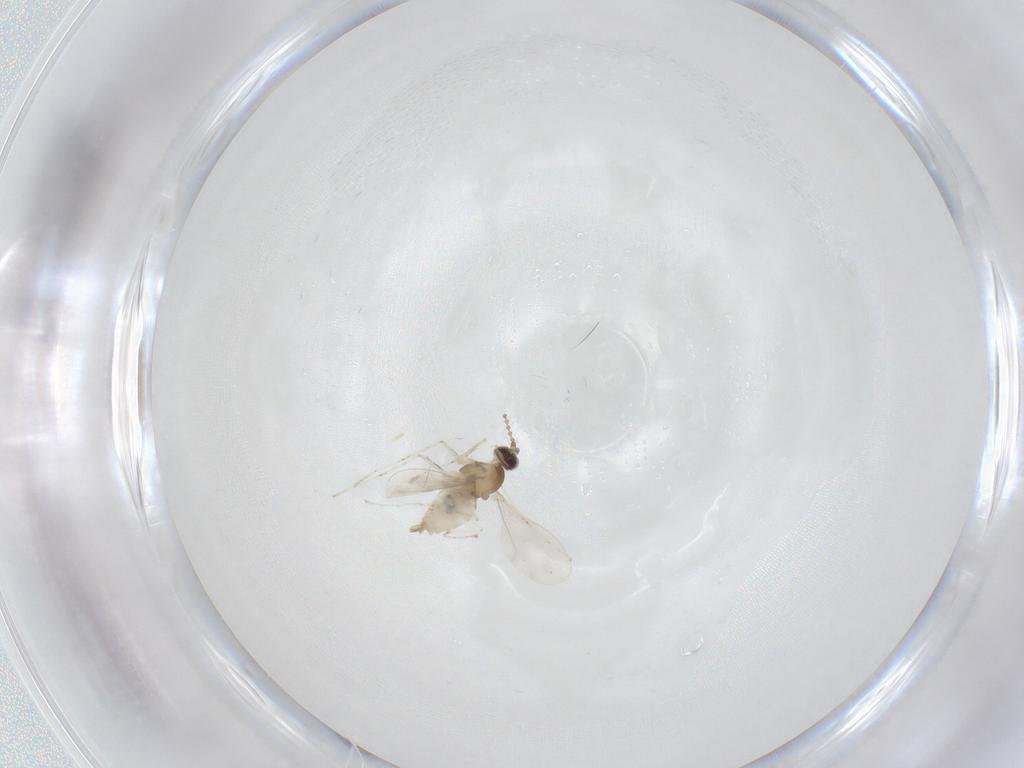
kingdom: Animalia
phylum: Arthropoda
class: Insecta
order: Diptera
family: Cecidomyiidae
